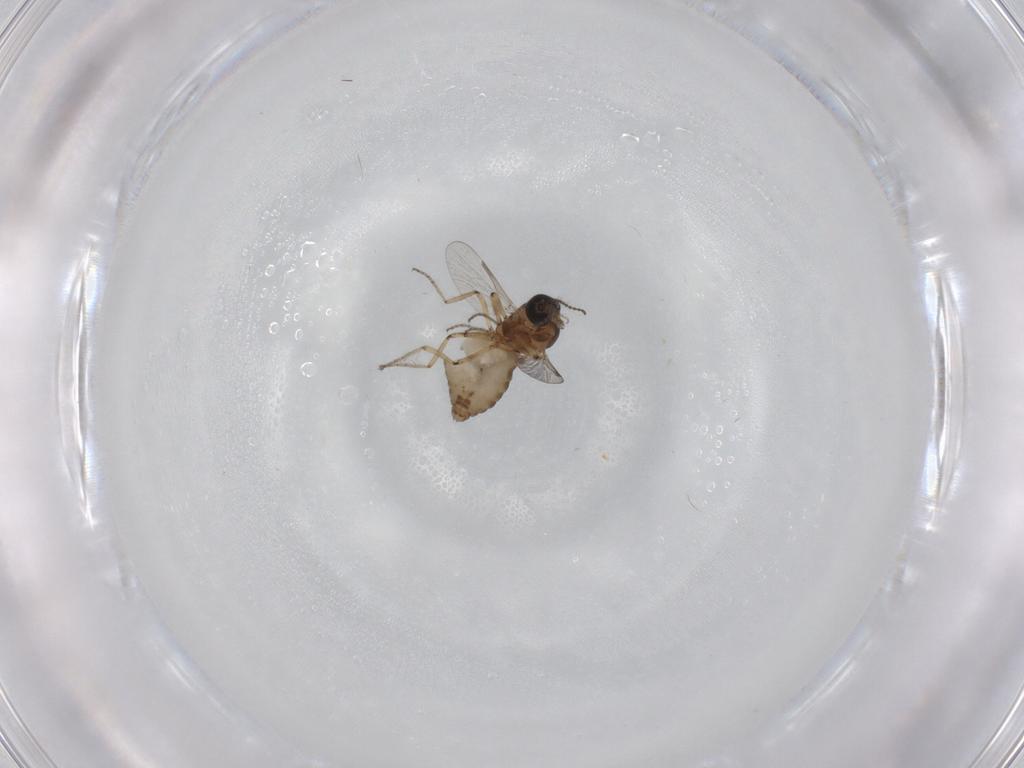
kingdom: Animalia
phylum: Arthropoda
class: Insecta
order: Diptera
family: Ceratopogonidae
